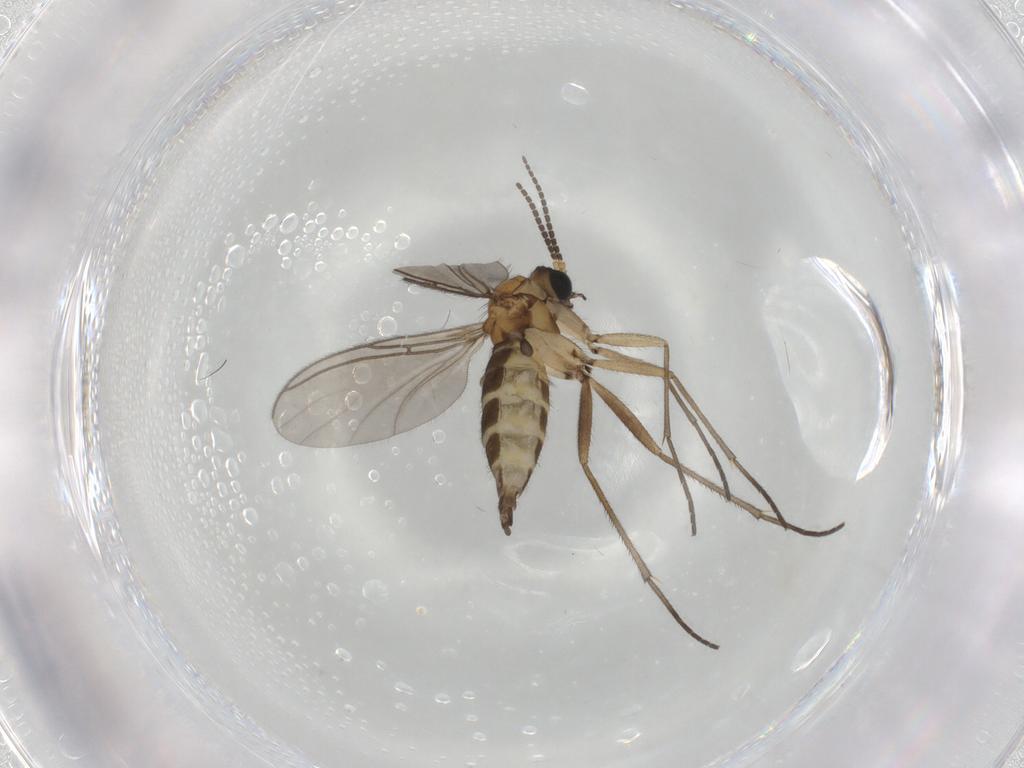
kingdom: Animalia
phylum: Arthropoda
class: Insecta
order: Diptera
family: Sciaridae
